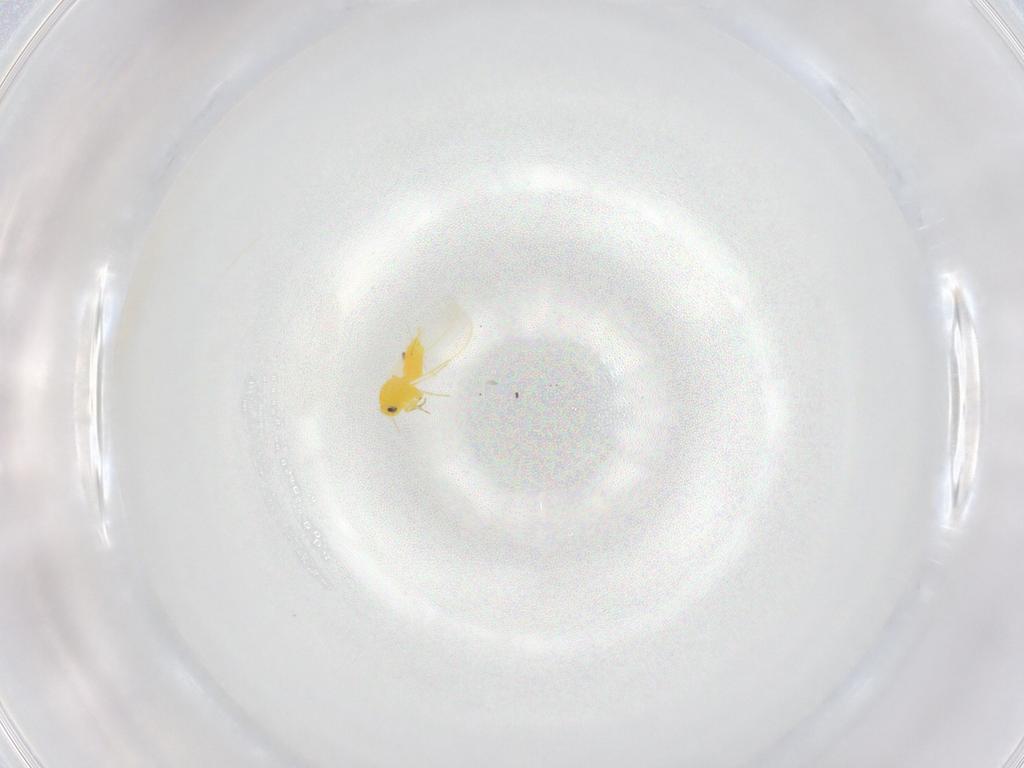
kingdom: Animalia
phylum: Arthropoda
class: Insecta
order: Hemiptera
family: Aleyrodidae
